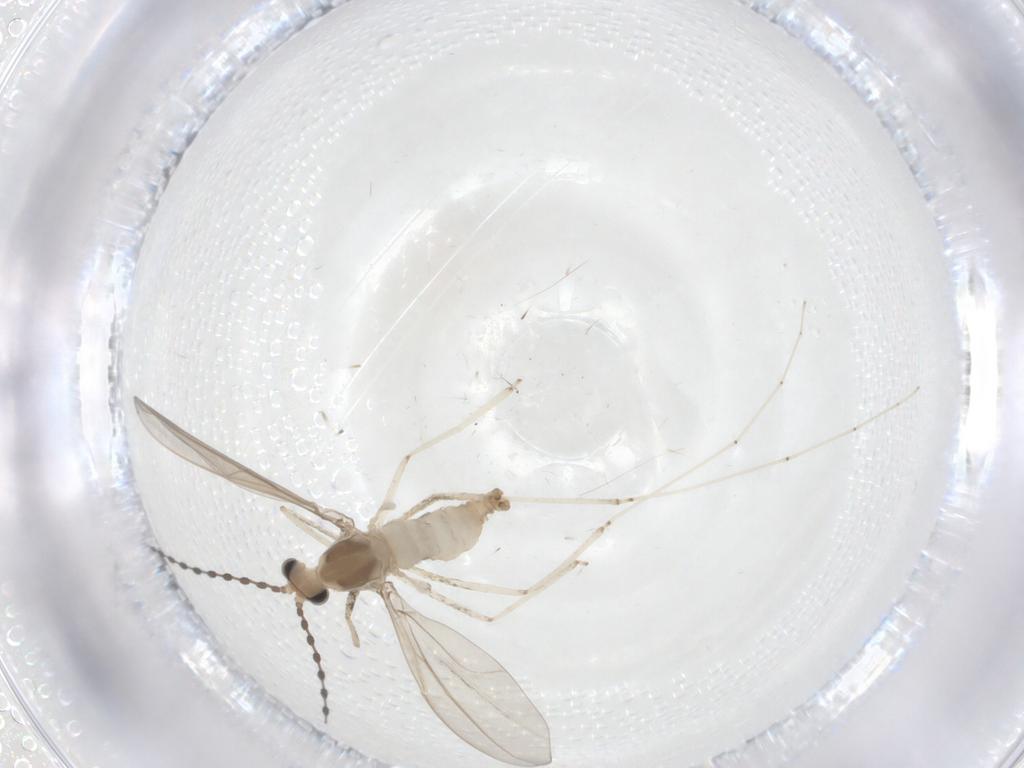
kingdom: Animalia
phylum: Arthropoda
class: Insecta
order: Diptera
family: Cecidomyiidae
